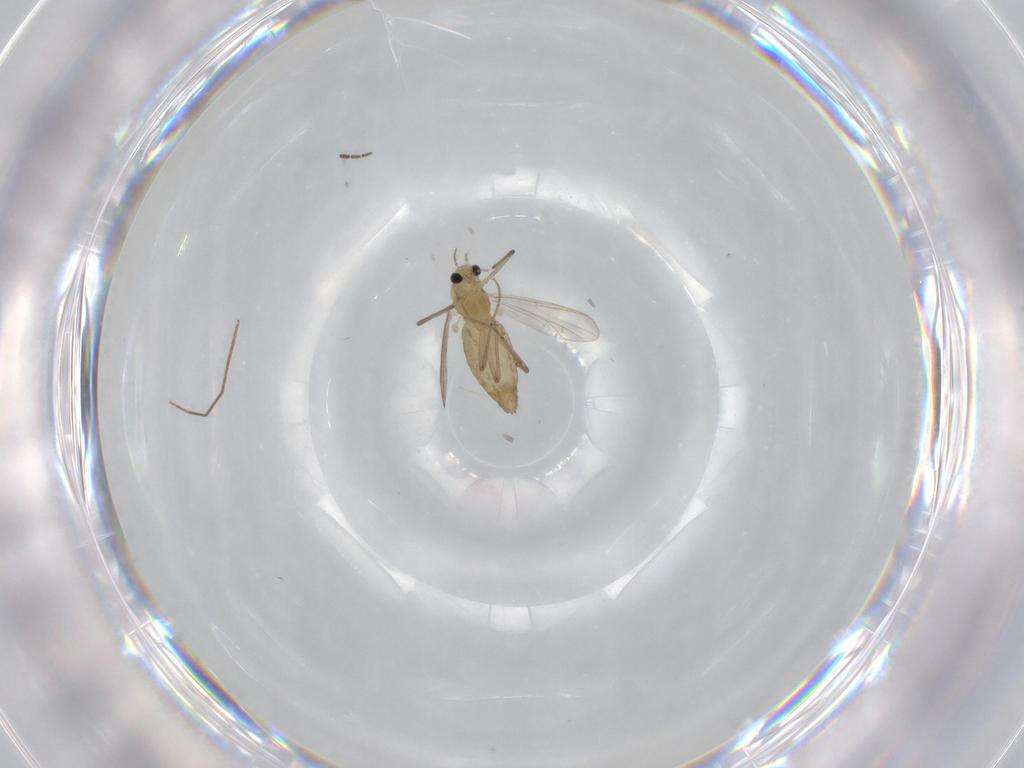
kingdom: Animalia
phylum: Arthropoda
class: Insecta
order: Diptera
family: Chironomidae
